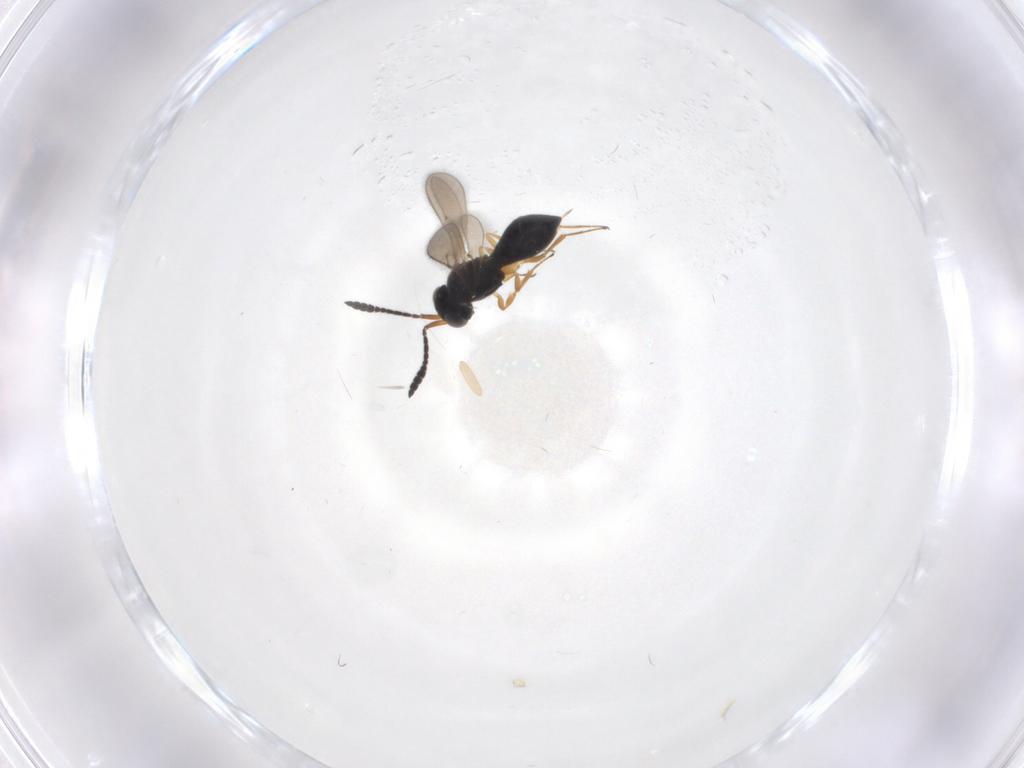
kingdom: Animalia
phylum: Arthropoda
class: Insecta
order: Hymenoptera
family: Scelionidae
